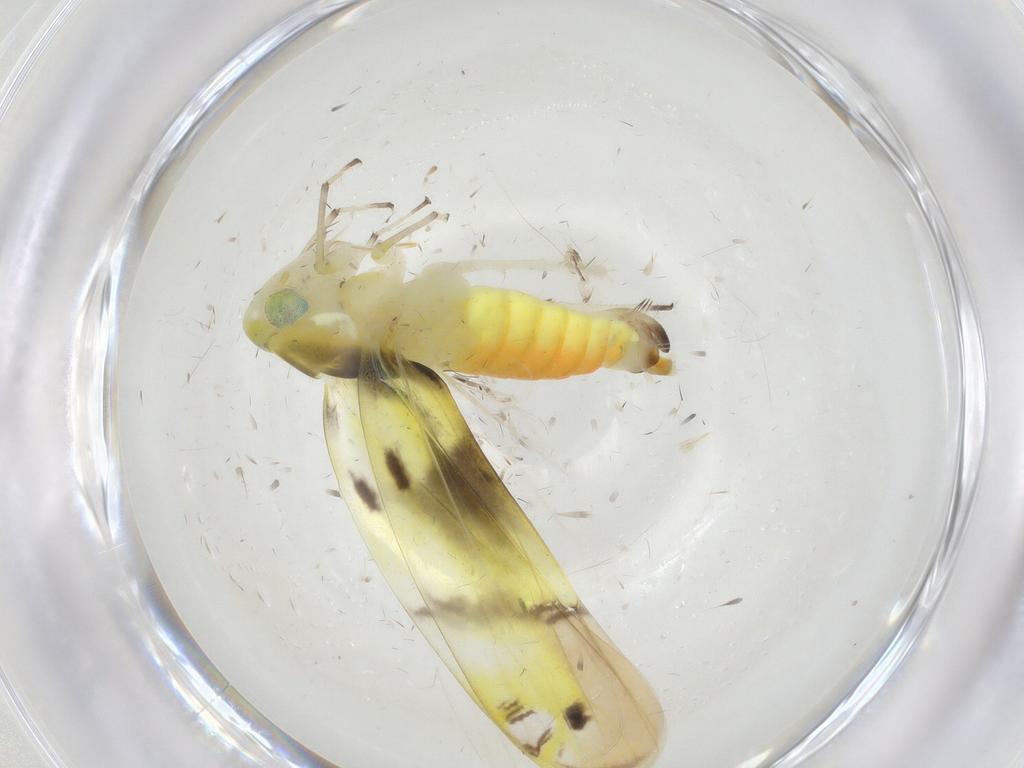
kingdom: Animalia
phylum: Arthropoda
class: Insecta
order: Hemiptera
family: Cicadellidae
